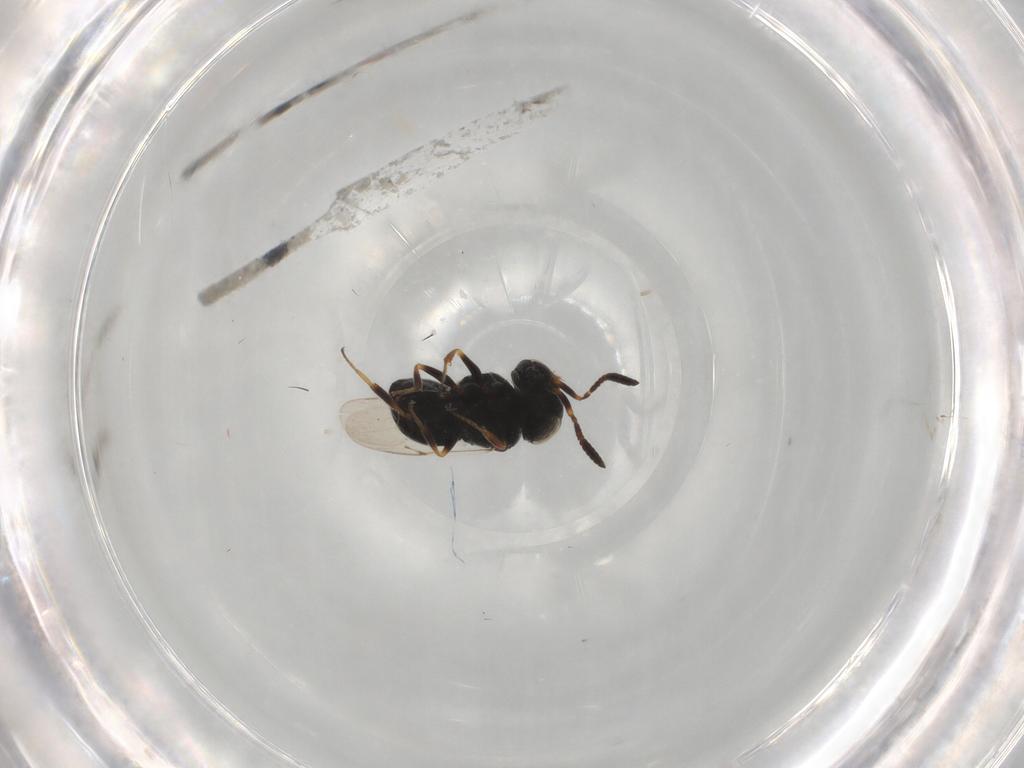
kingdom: Animalia
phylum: Arthropoda
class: Insecta
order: Hymenoptera
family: Scelionidae
